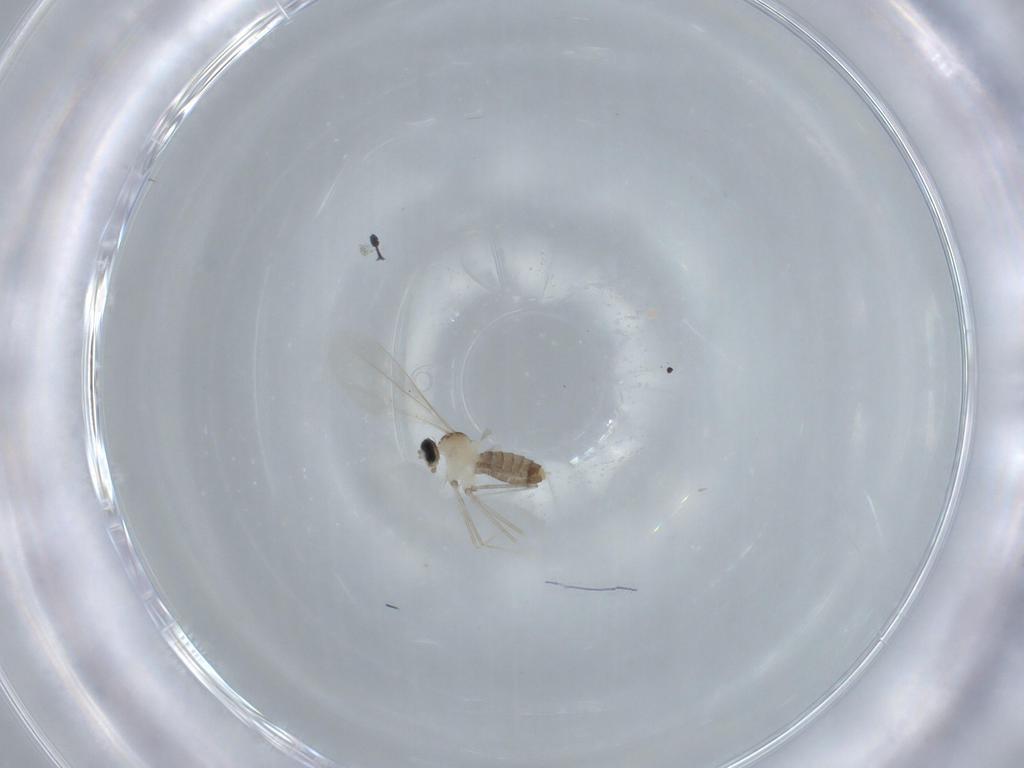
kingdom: Animalia
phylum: Arthropoda
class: Insecta
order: Diptera
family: Cecidomyiidae
